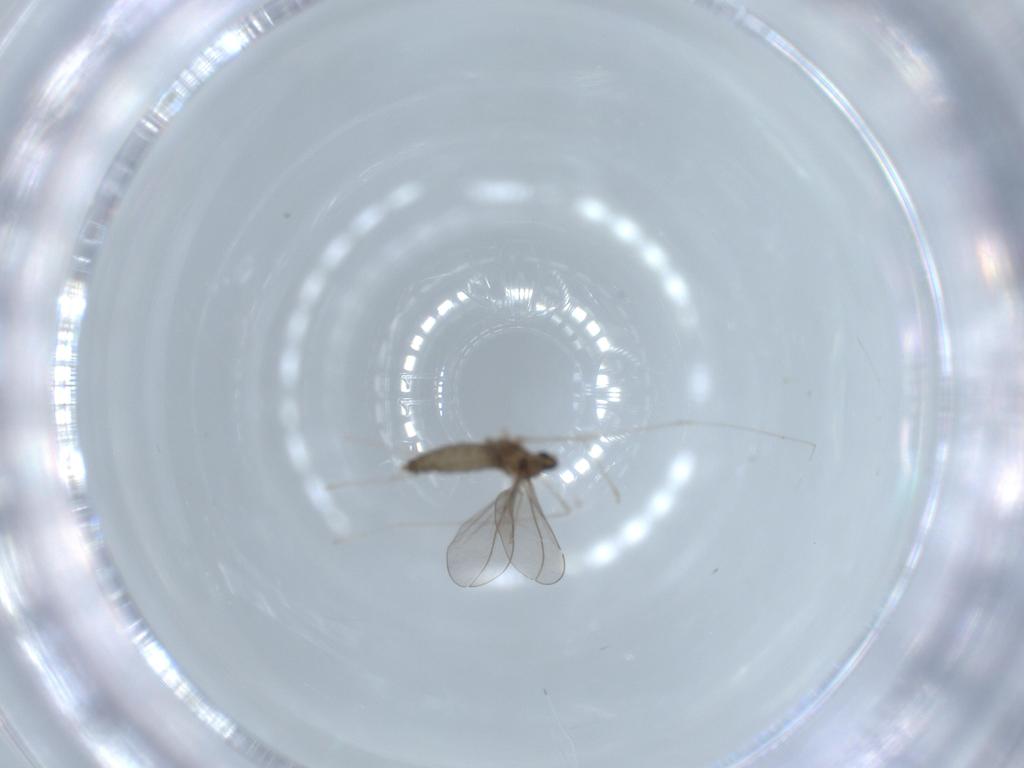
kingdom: Animalia
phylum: Arthropoda
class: Insecta
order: Diptera
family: Cecidomyiidae
